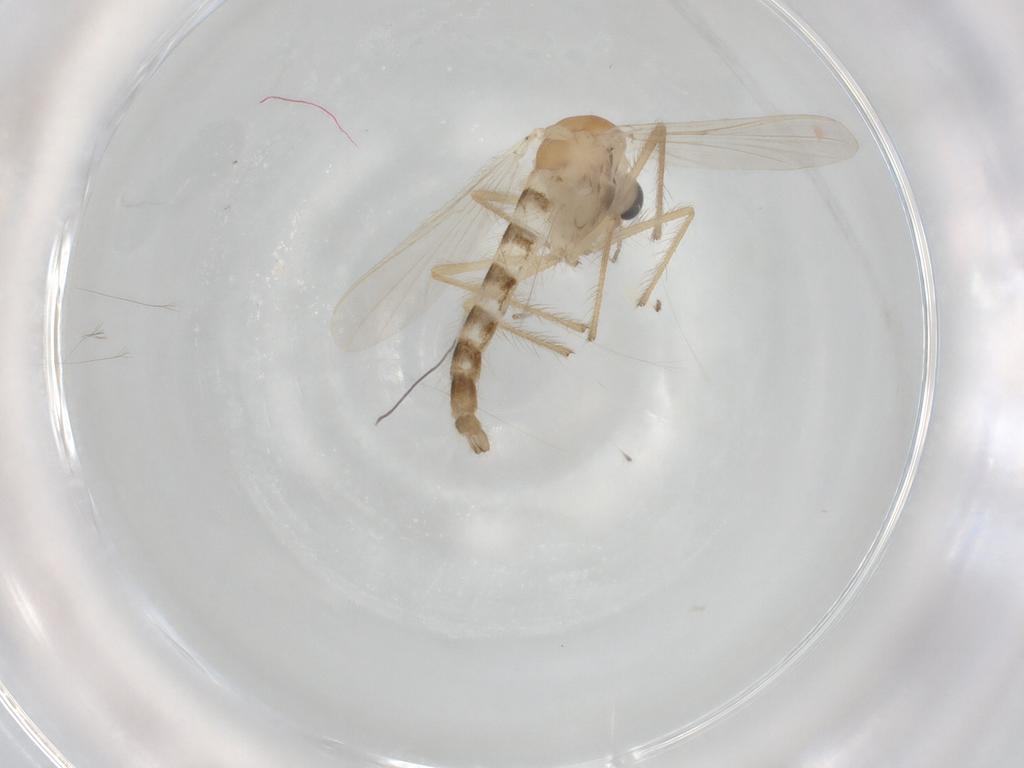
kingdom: Animalia
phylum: Arthropoda
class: Insecta
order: Diptera
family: Chironomidae
